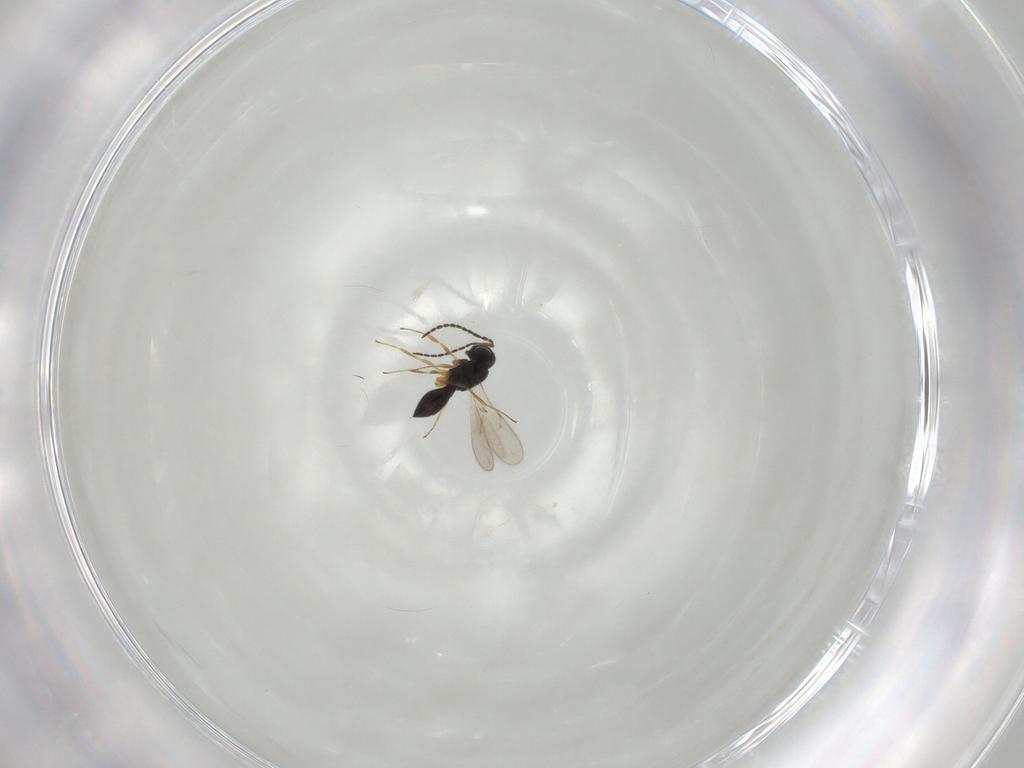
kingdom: Animalia
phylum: Arthropoda
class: Insecta
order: Hymenoptera
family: Scelionidae
